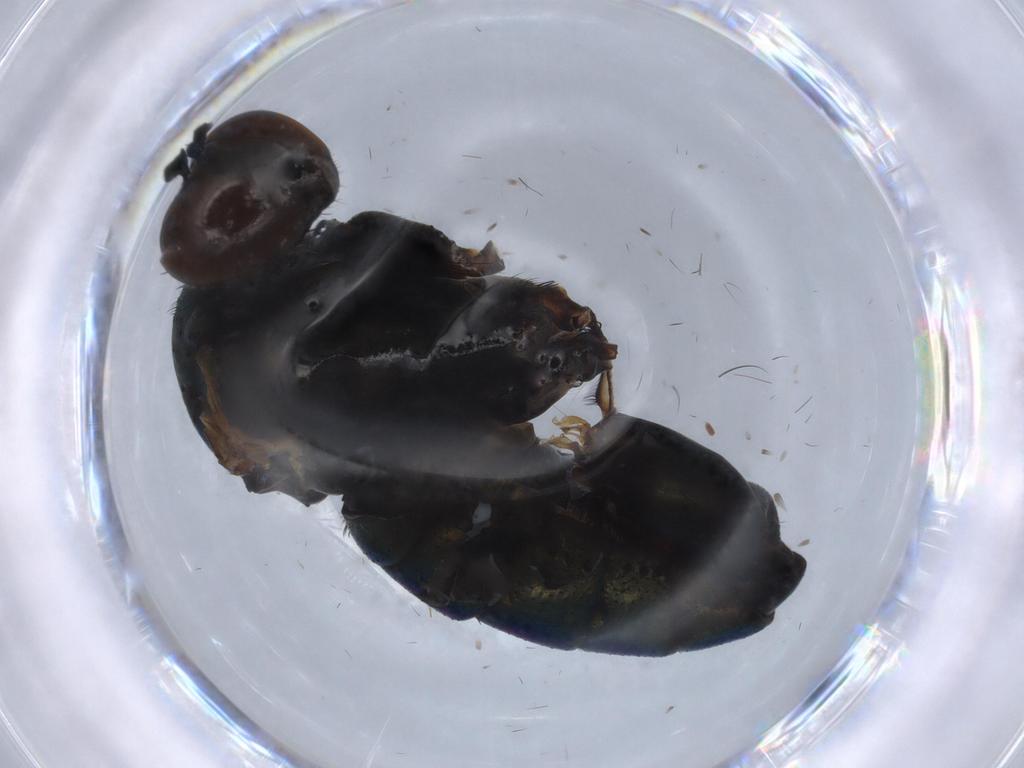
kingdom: Animalia
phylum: Arthropoda
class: Insecta
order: Diptera
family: Dolichopodidae
